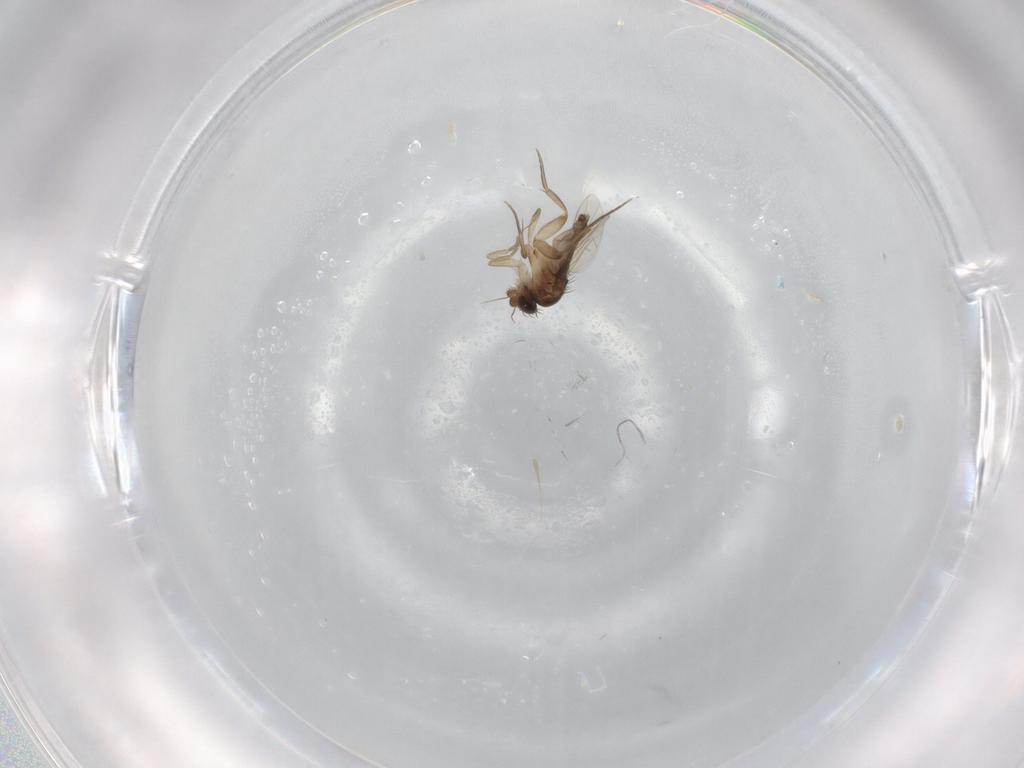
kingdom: Animalia
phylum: Arthropoda
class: Insecta
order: Diptera
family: Phoridae
